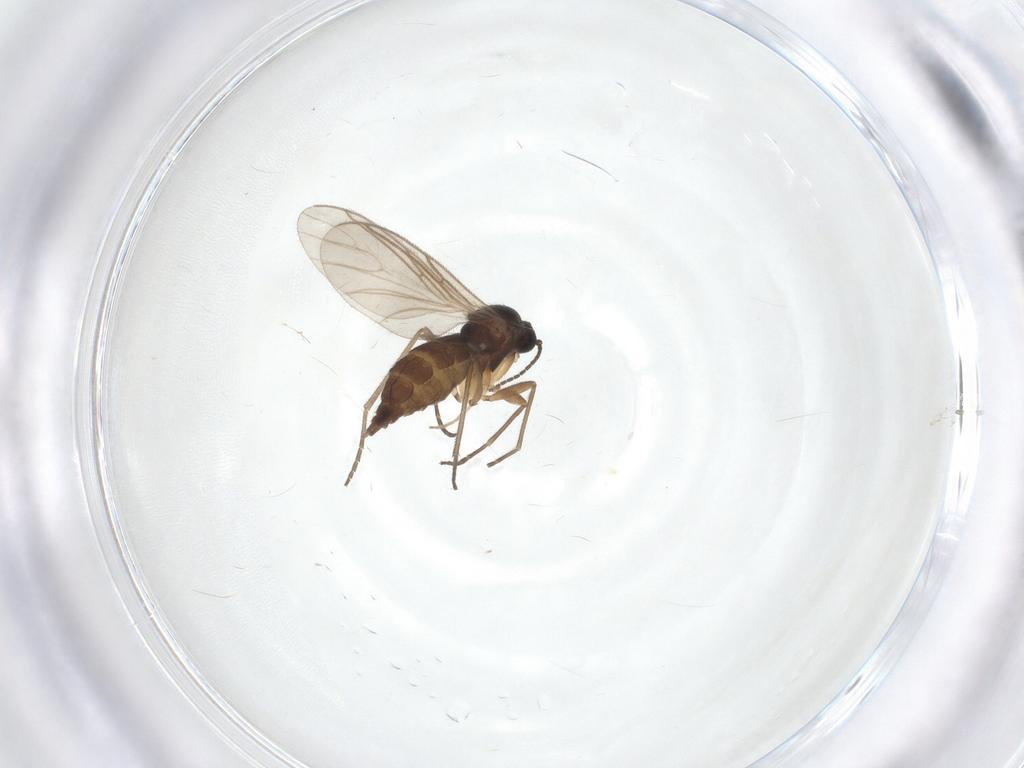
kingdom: Animalia
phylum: Arthropoda
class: Insecta
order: Diptera
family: Sciaridae
